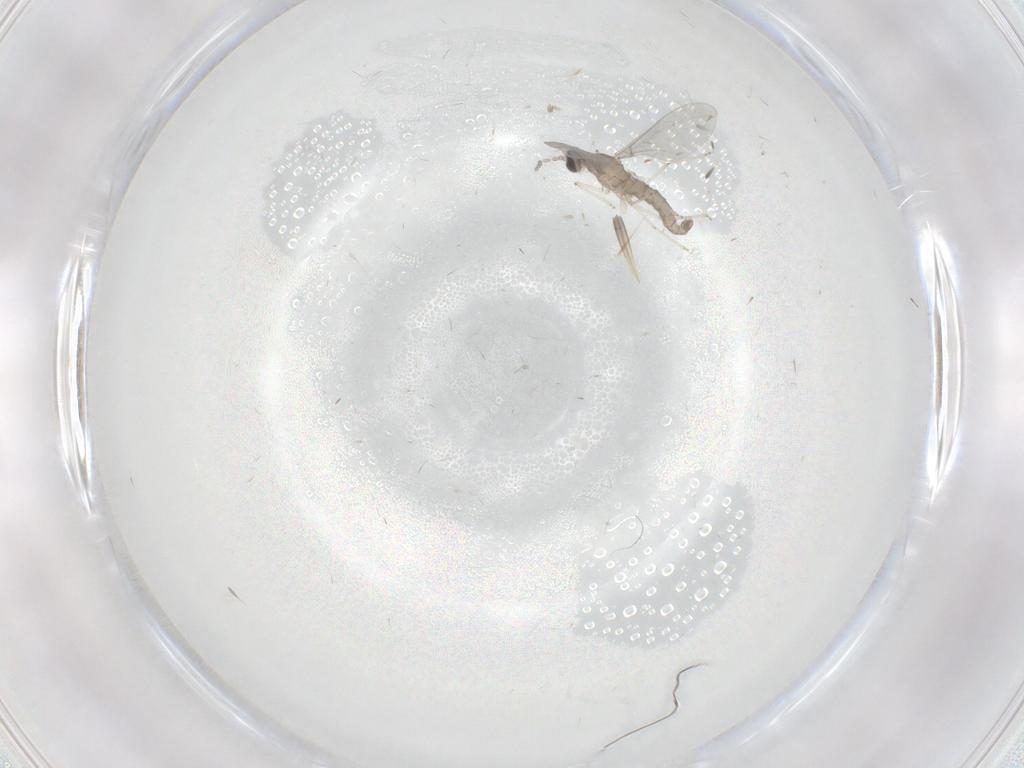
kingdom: Animalia
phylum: Arthropoda
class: Insecta
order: Diptera
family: Cecidomyiidae
